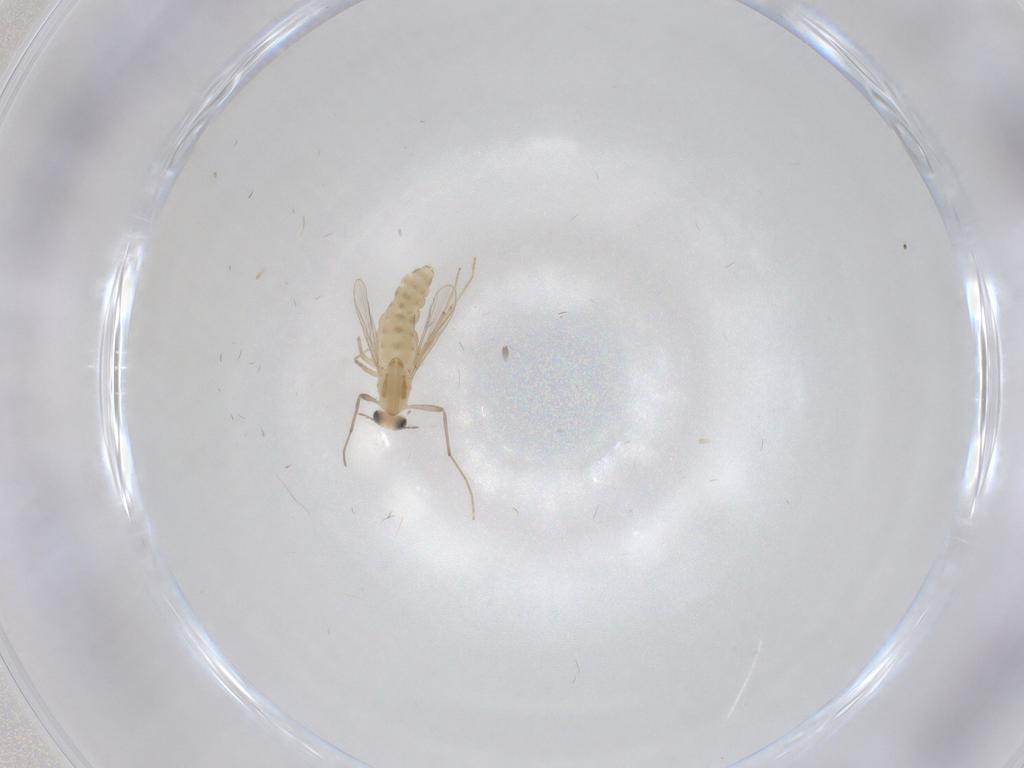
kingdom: Animalia
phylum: Arthropoda
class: Insecta
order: Diptera
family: Chironomidae
